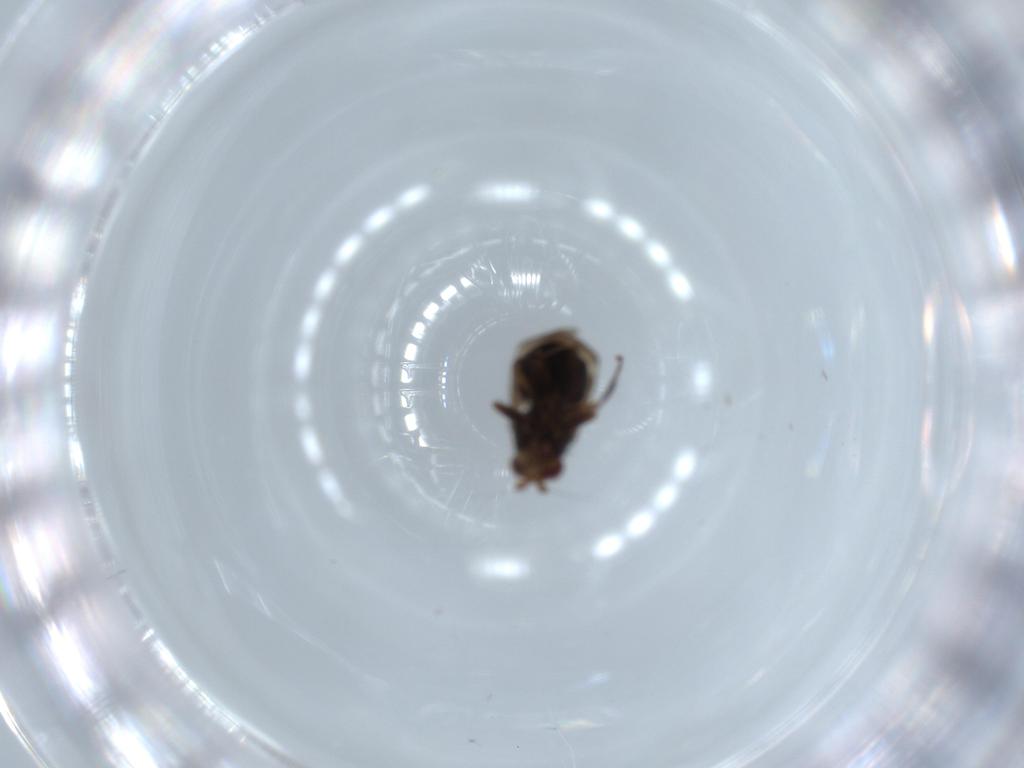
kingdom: Animalia
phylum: Arthropoda
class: Insecta
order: Diptera
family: Sphaeroceridae
